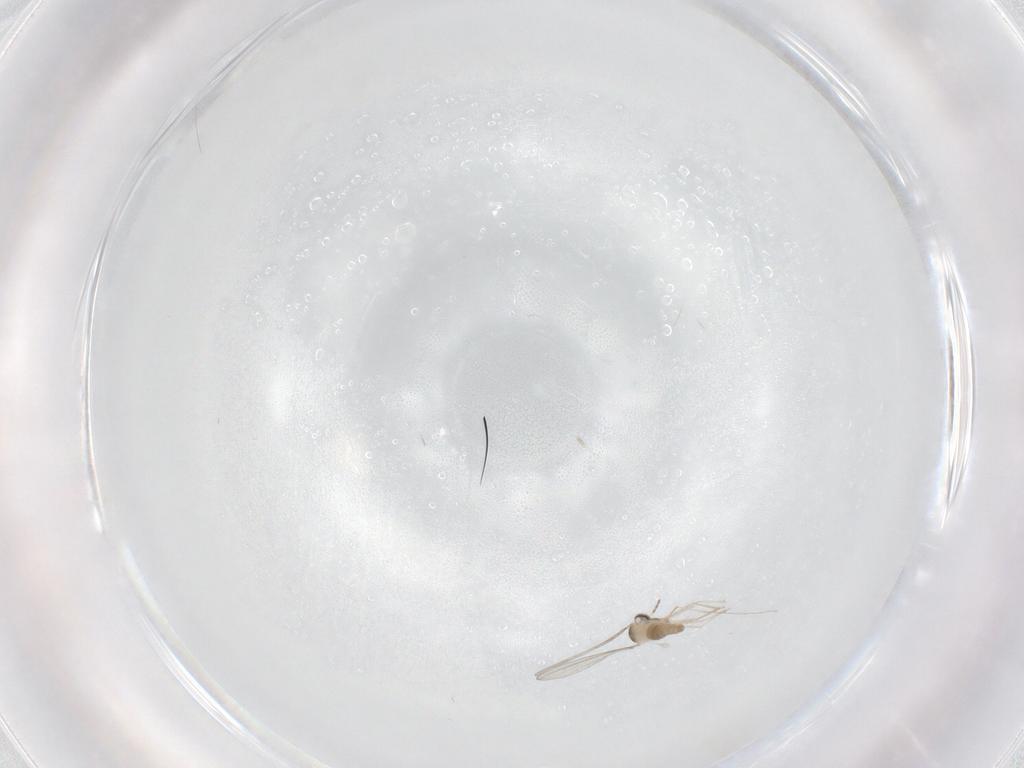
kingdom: Animalia
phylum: Arthropoda
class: Insecta
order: Diptera
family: Cecidomyiidae
